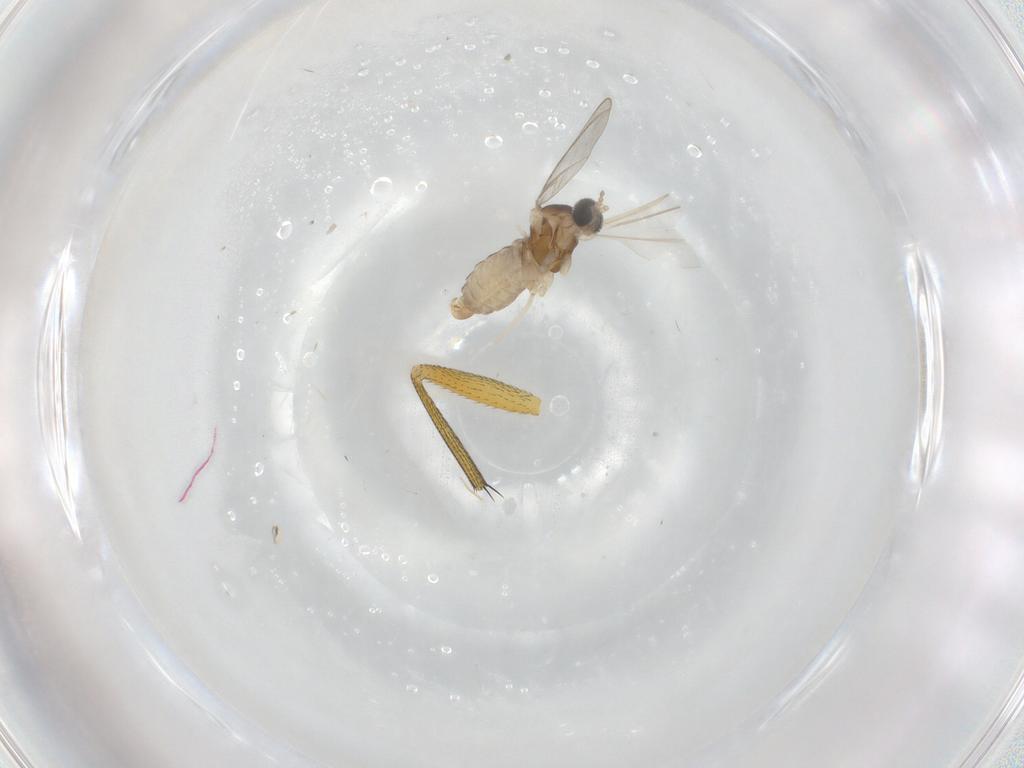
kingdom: Animalia
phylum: Arthropoda
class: Insecta
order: Diptera
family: Cecidomyiidae
